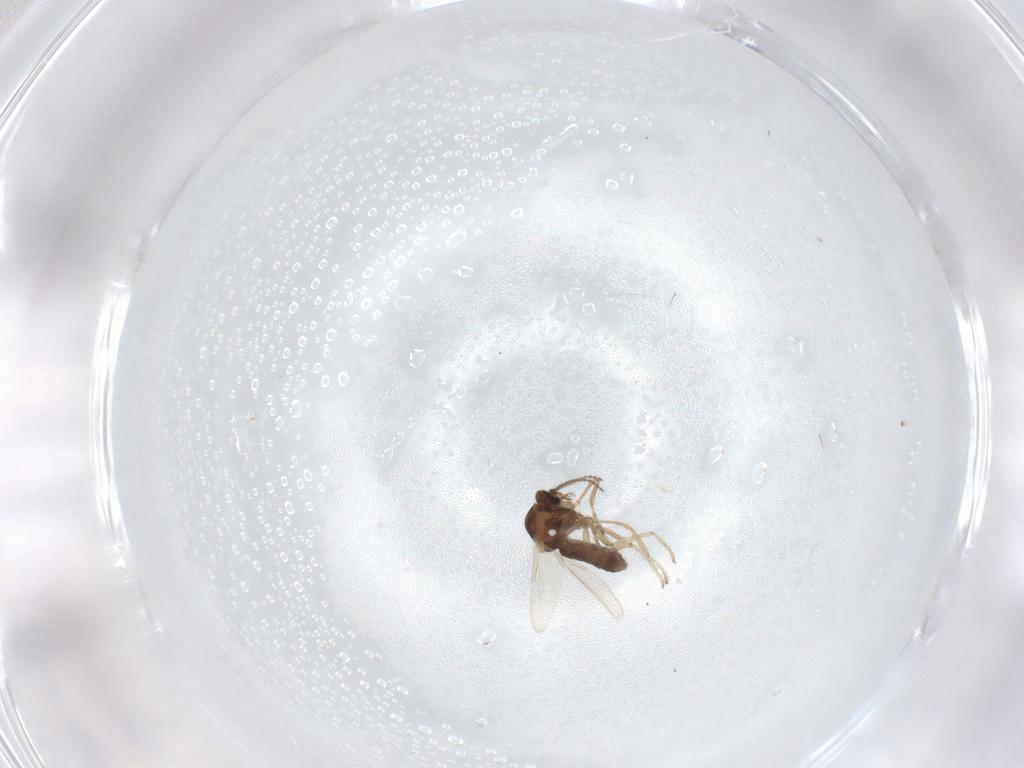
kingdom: Animalia
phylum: Arthropoda
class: Insecta
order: Diptera
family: Ceratopogonidae
